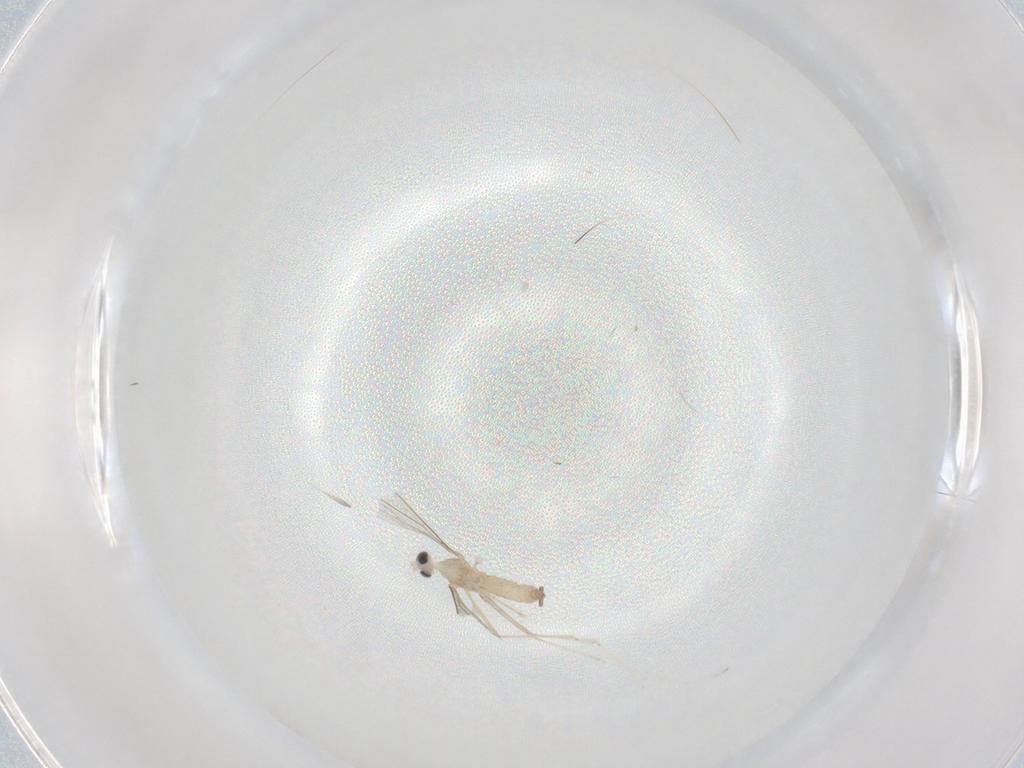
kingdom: Animalia
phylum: Arthropoda
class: Insecta
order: Diptera
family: Cecidomyiidae
